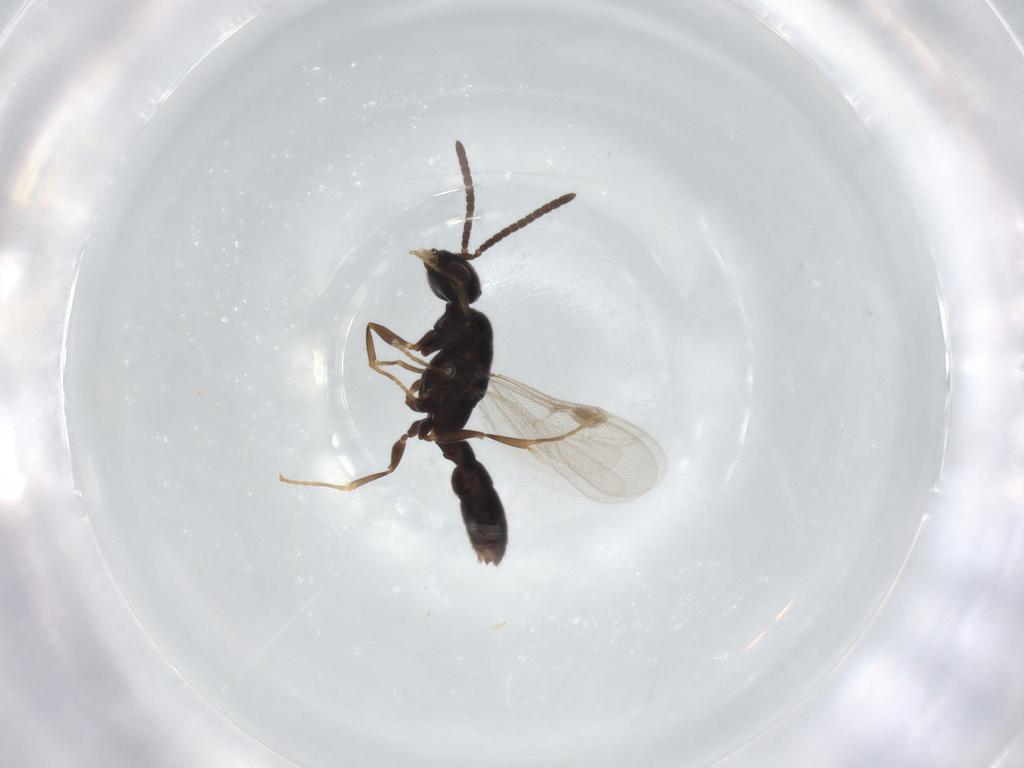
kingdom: Animalia
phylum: Arthropoda
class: Insecta
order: Hymenoptera
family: Formicidae
